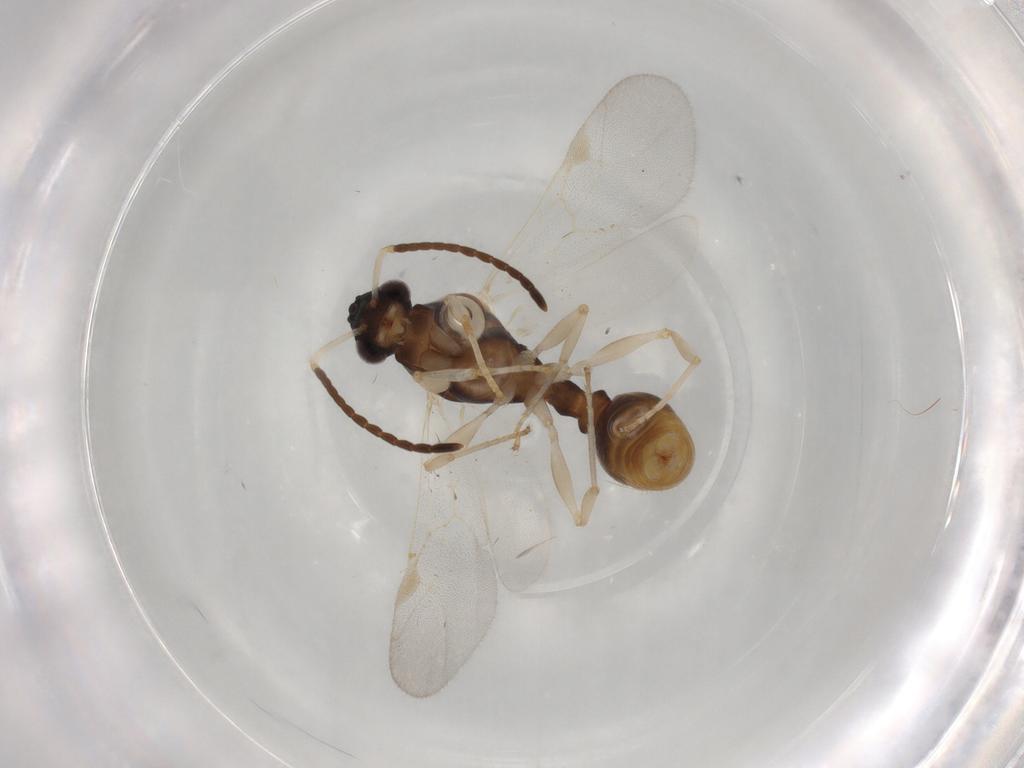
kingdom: Animalia
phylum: Arthropoda
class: Insecta
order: Hymenoptera
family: Formicidae
